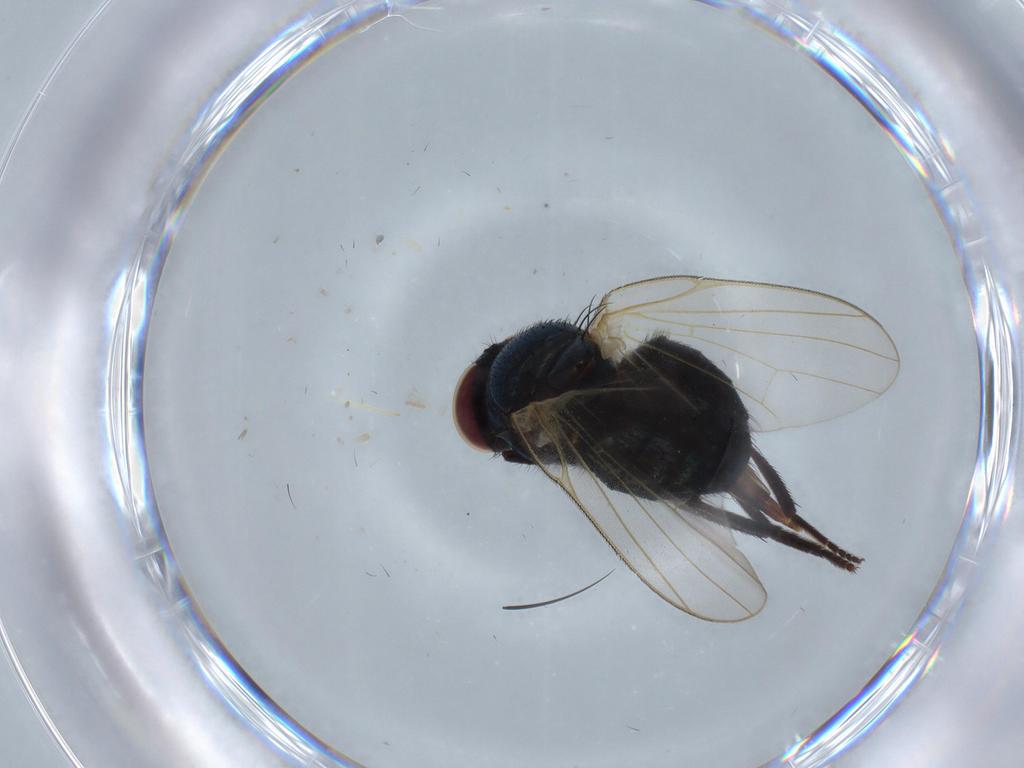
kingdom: Animalia
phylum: Arthropoda
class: Insecta
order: Diptera
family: Lonchaeidae
